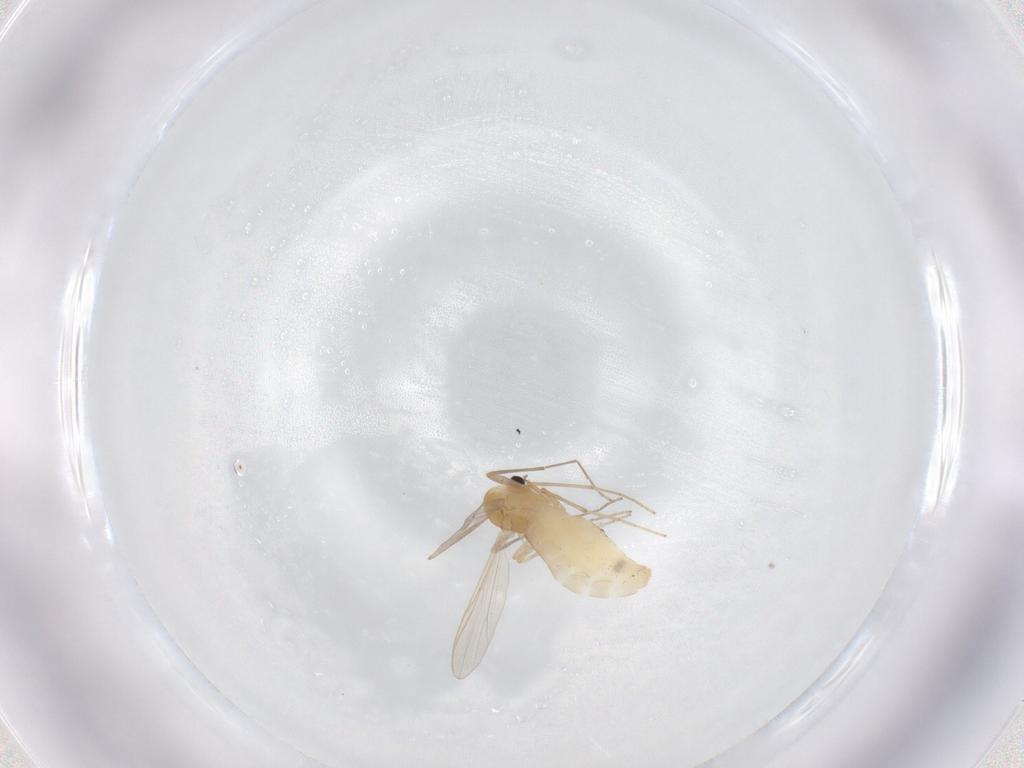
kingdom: Animalia
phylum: Arthropoda
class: Insecta
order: Diptera
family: Chironomidae
